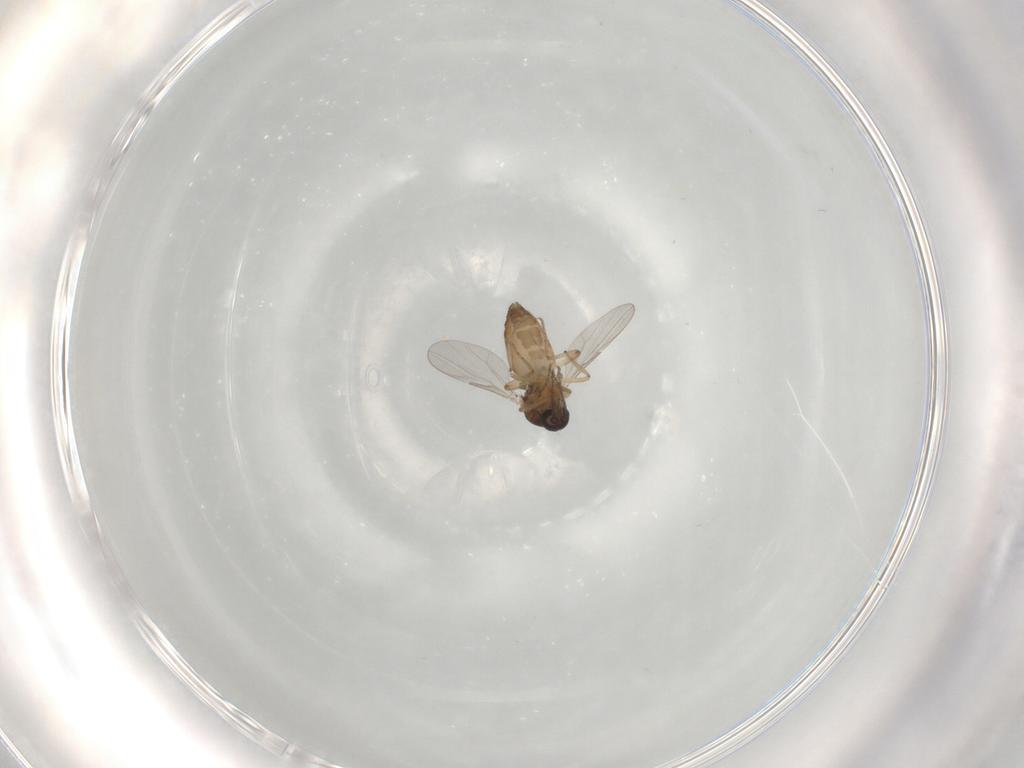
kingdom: Animalia
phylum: Arthropoda
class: Insecta
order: Diptera
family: Ceratopogonidae
